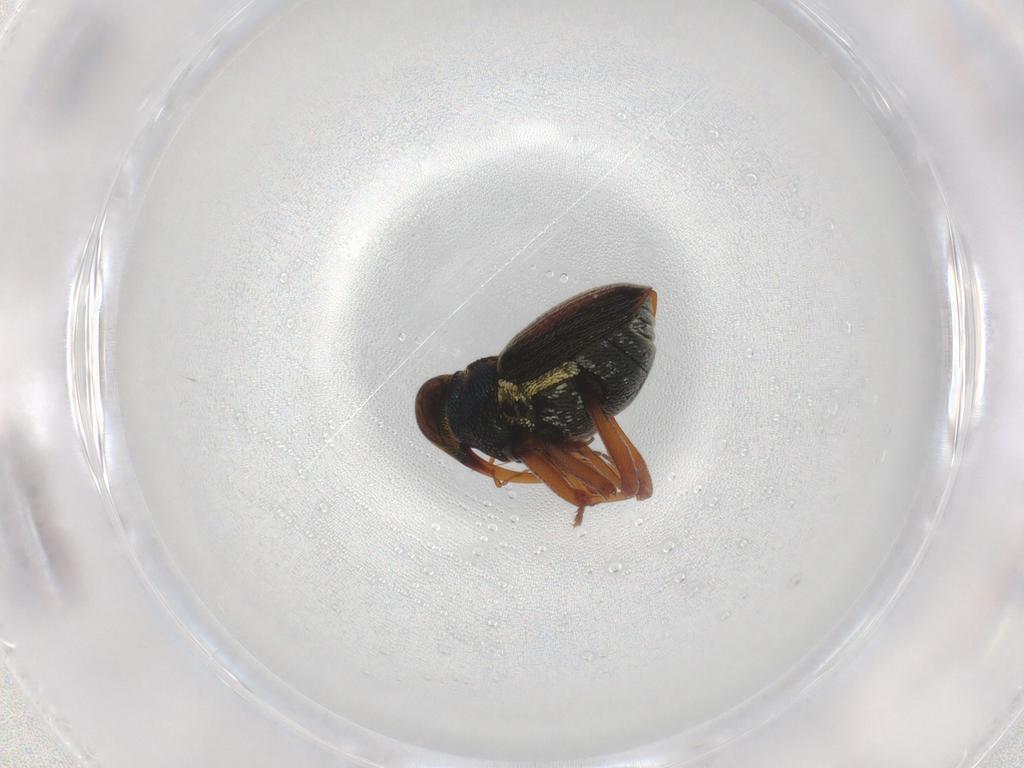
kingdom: Animalia
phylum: Arthropoda
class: Insecta
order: Coleoptera
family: Curculionidae
